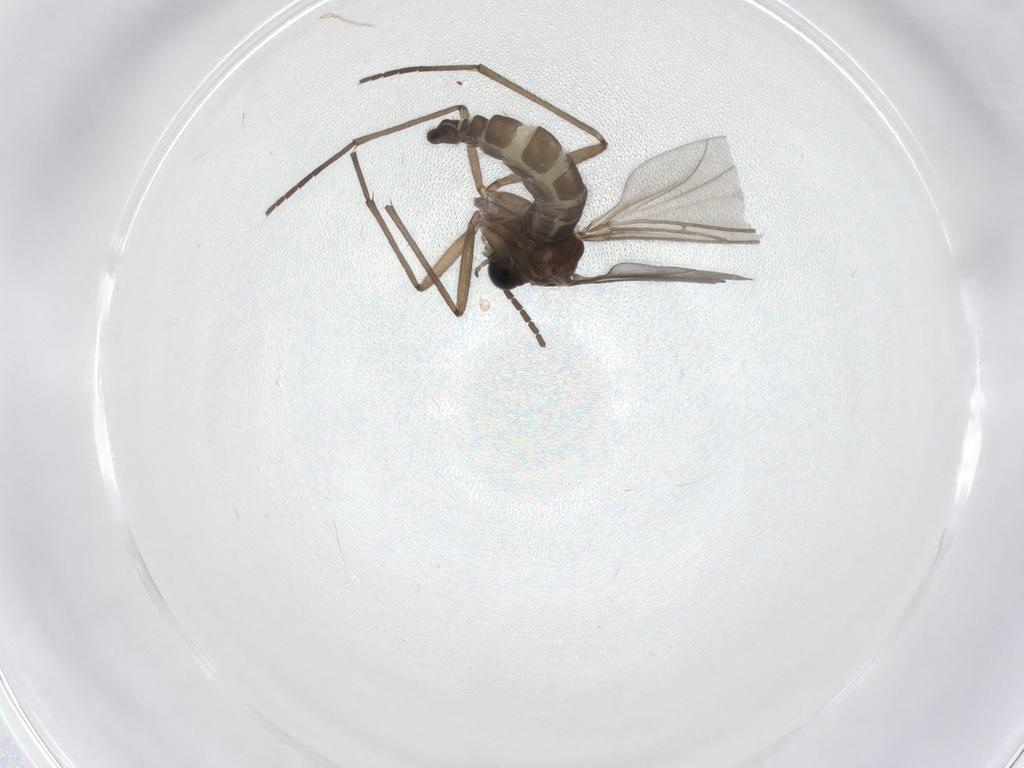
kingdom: Animalia
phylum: Arthropoda
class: Insecta
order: Diptera
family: Sciaridae
